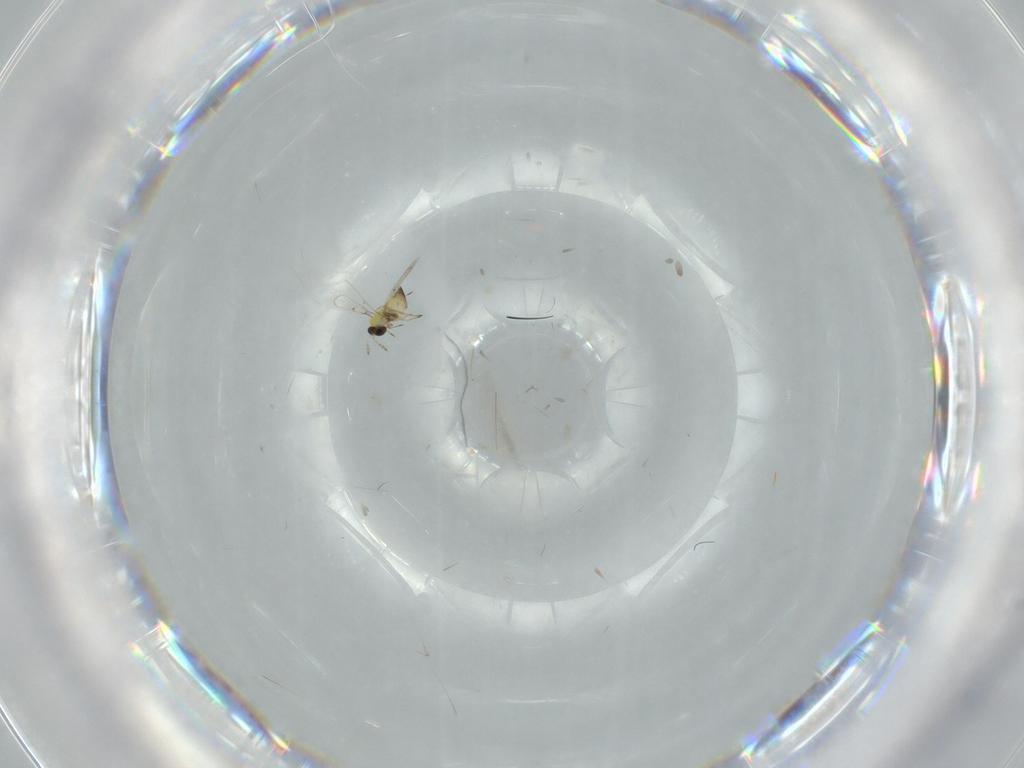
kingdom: Animalia
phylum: Arthropoda
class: Insecta
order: Hymenoptera
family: Trichogrammatidae
